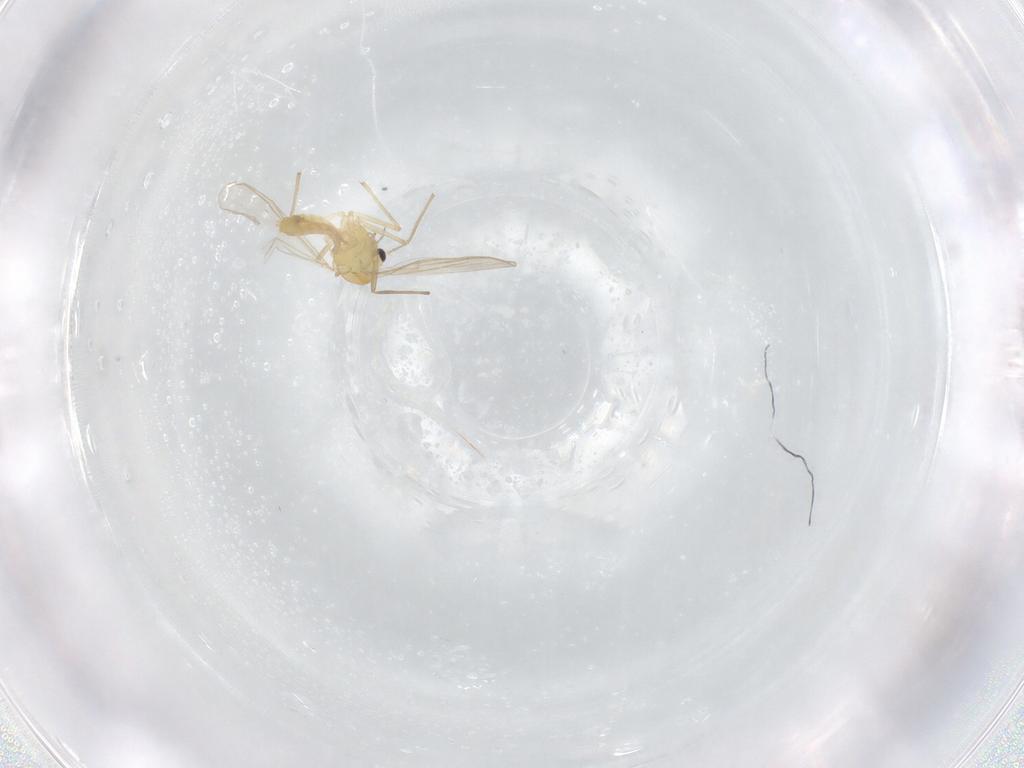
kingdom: Animalia
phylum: Arthropoda
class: Insecta
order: Diptera
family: Chironomidae
